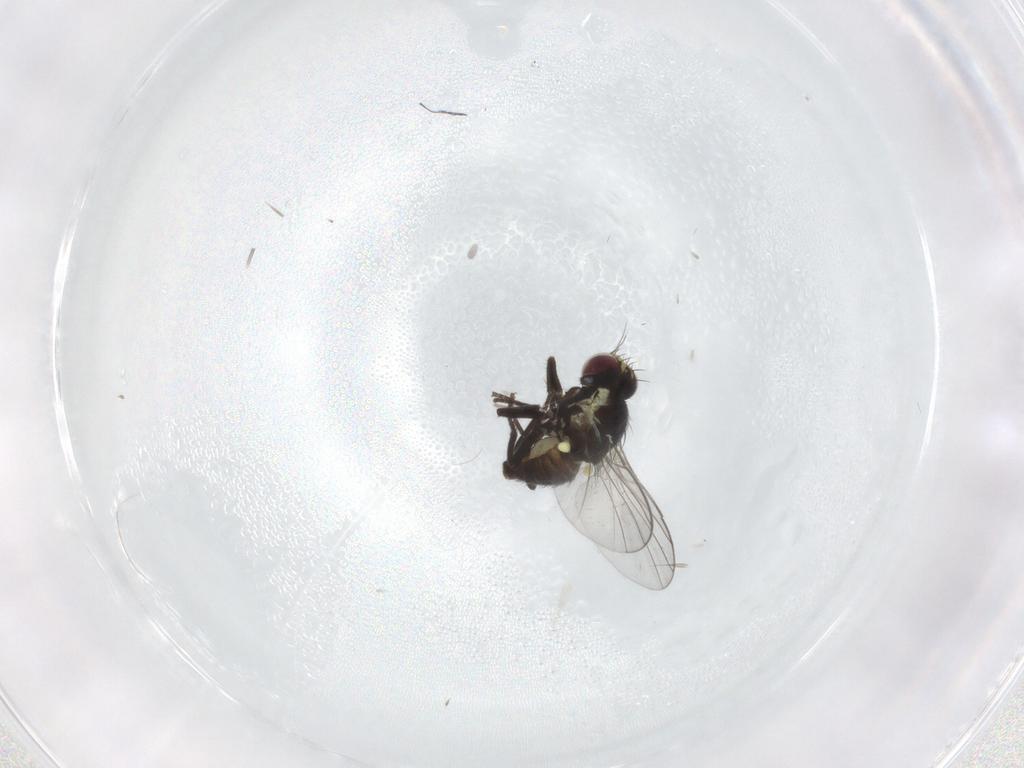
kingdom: Animalia
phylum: Arthropoda
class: Insecta
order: Diptera
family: Agromyzidae
